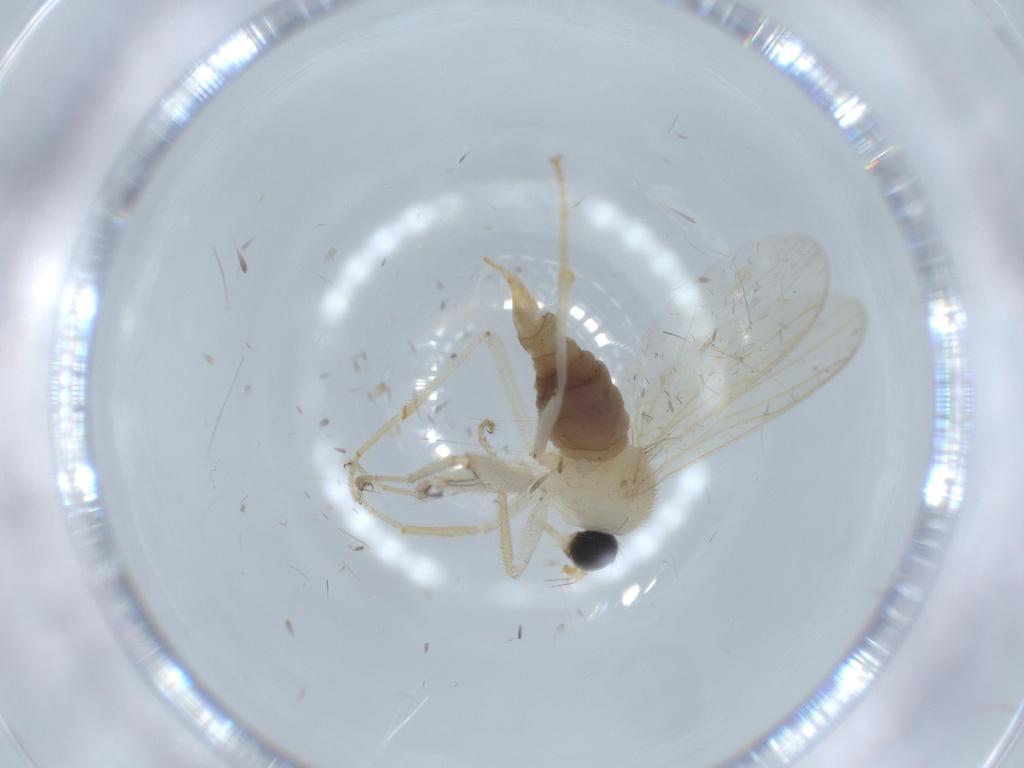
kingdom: Animalia
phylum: Arthropoda
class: Insecta
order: Diptera
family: Hybotidae
